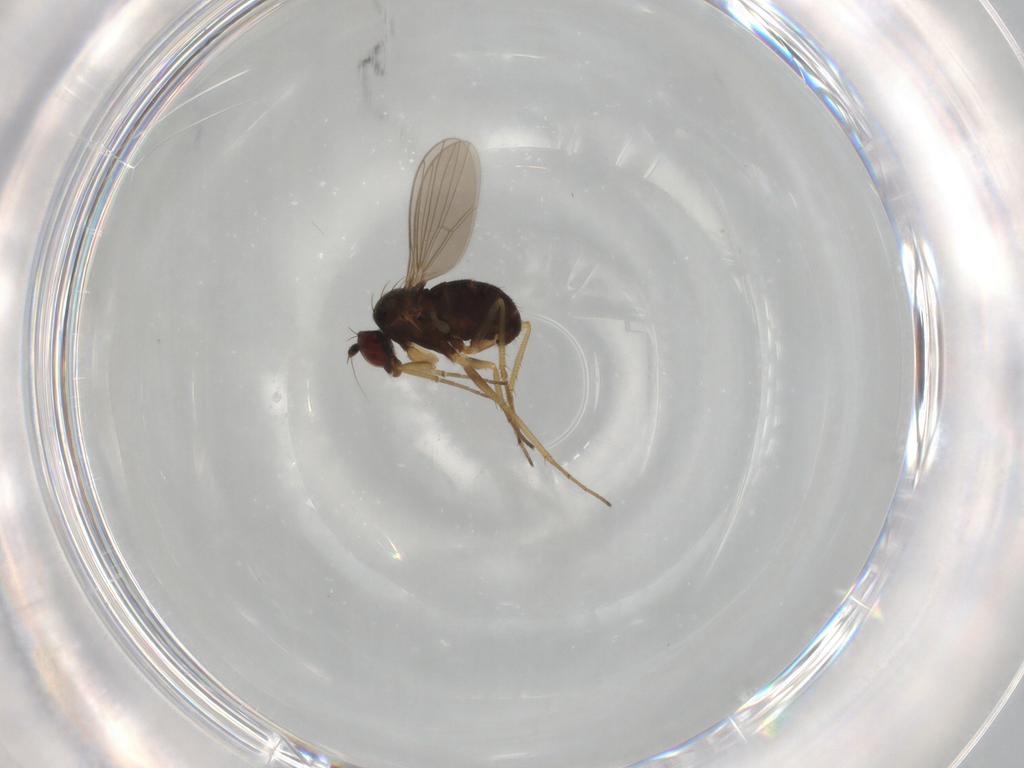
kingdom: Animalia
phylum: Arthropoda
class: Insecta
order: Diptera
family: Dolichopodidae
